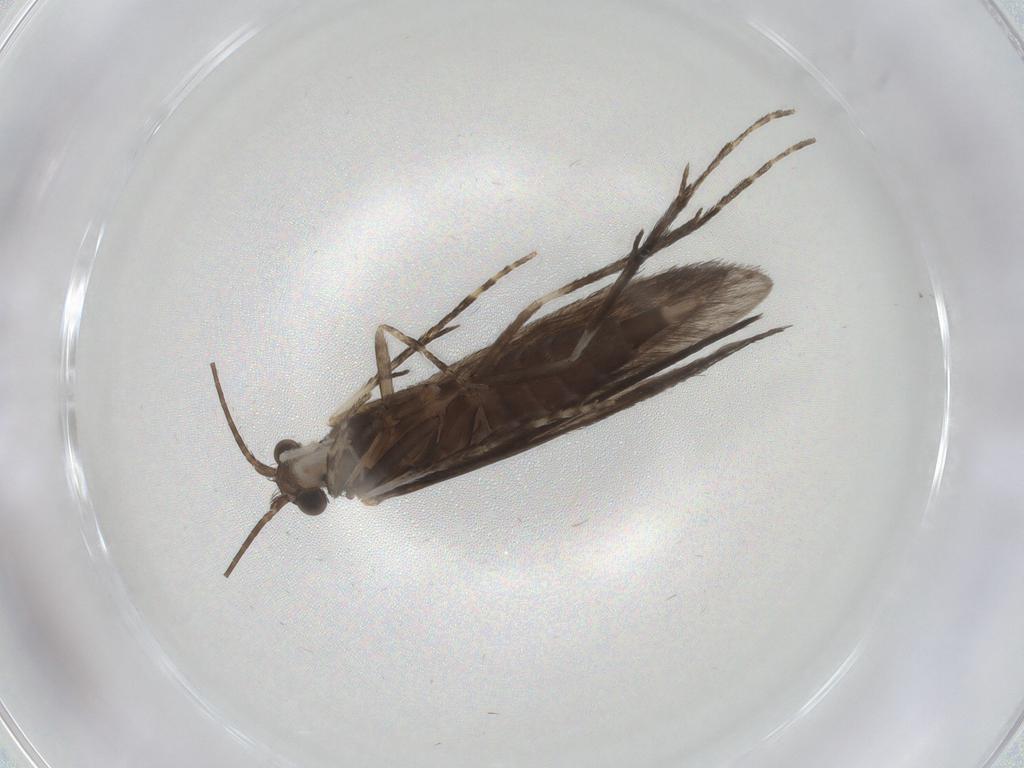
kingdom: Animalia
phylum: Arthropoda
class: Insecta
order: Trichoptera
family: Xiphocentronidae
